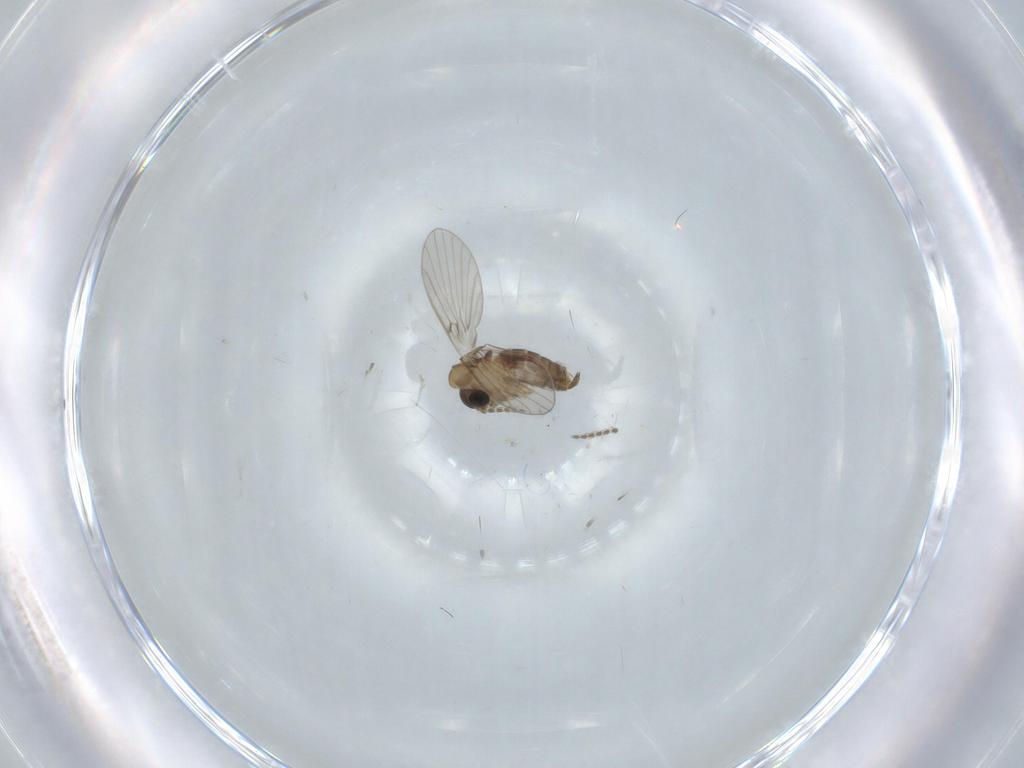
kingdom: Animalia
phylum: Arthropoda
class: Insecta
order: Diptera
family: Psychodidae
